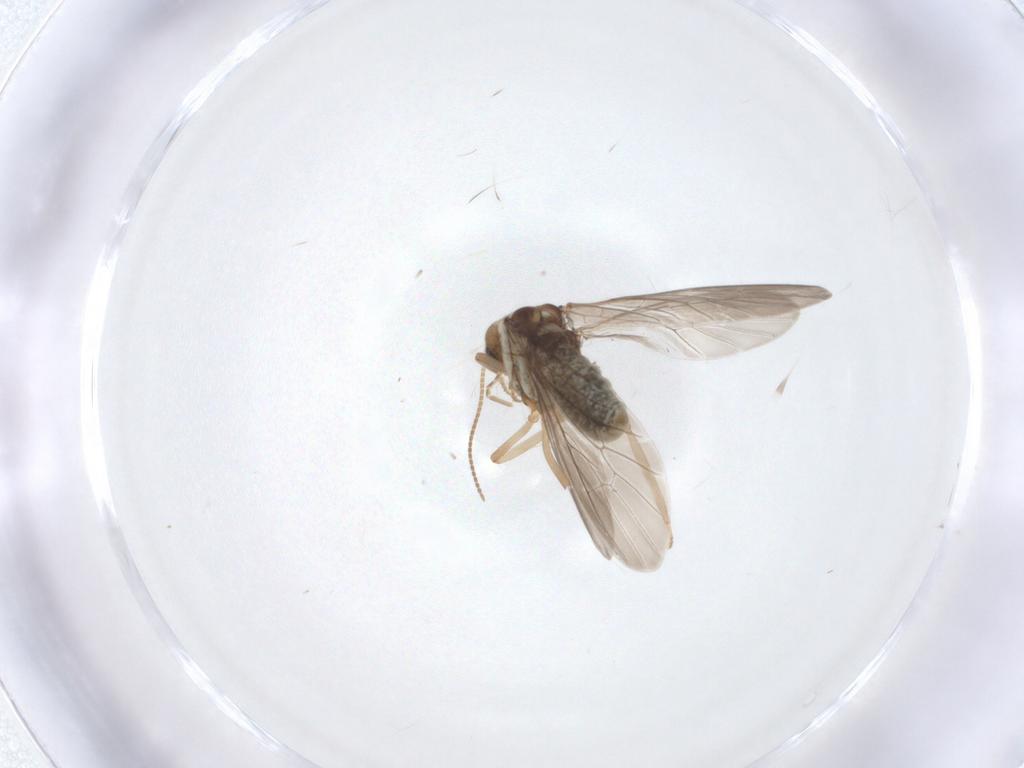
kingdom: Animalia
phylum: Arthropoda
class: Insecta
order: Neuroptera
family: Coniopterygidae
